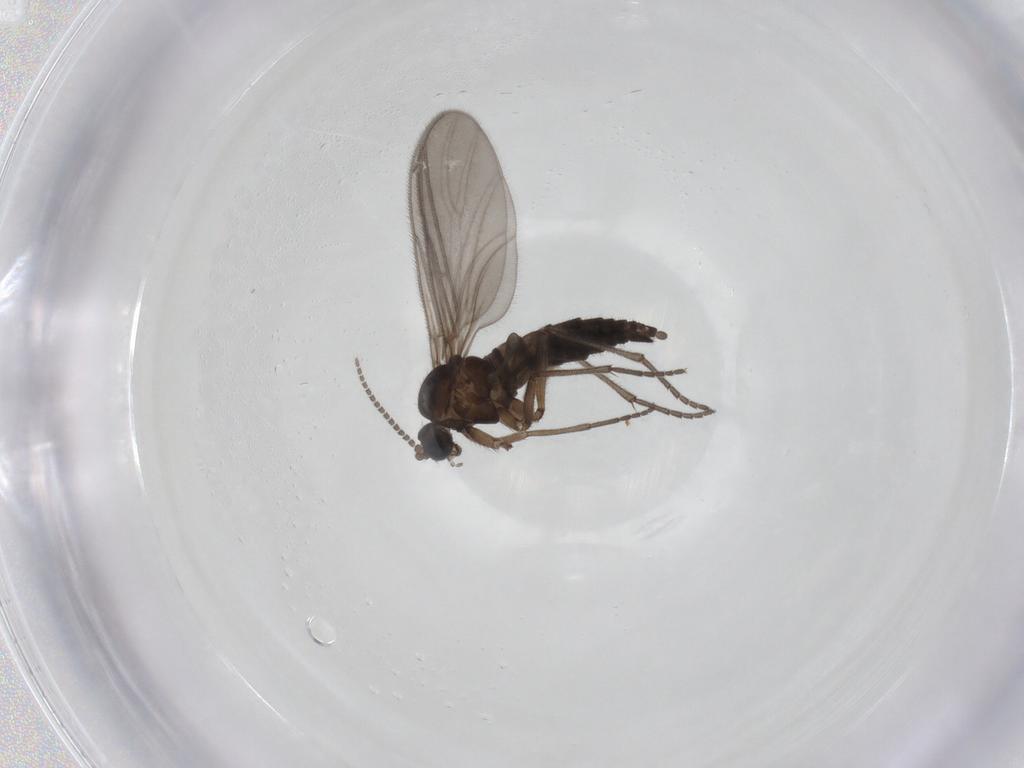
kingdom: Animalia
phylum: Arthropoda
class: Insecta
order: Diptera
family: Sciaridae
